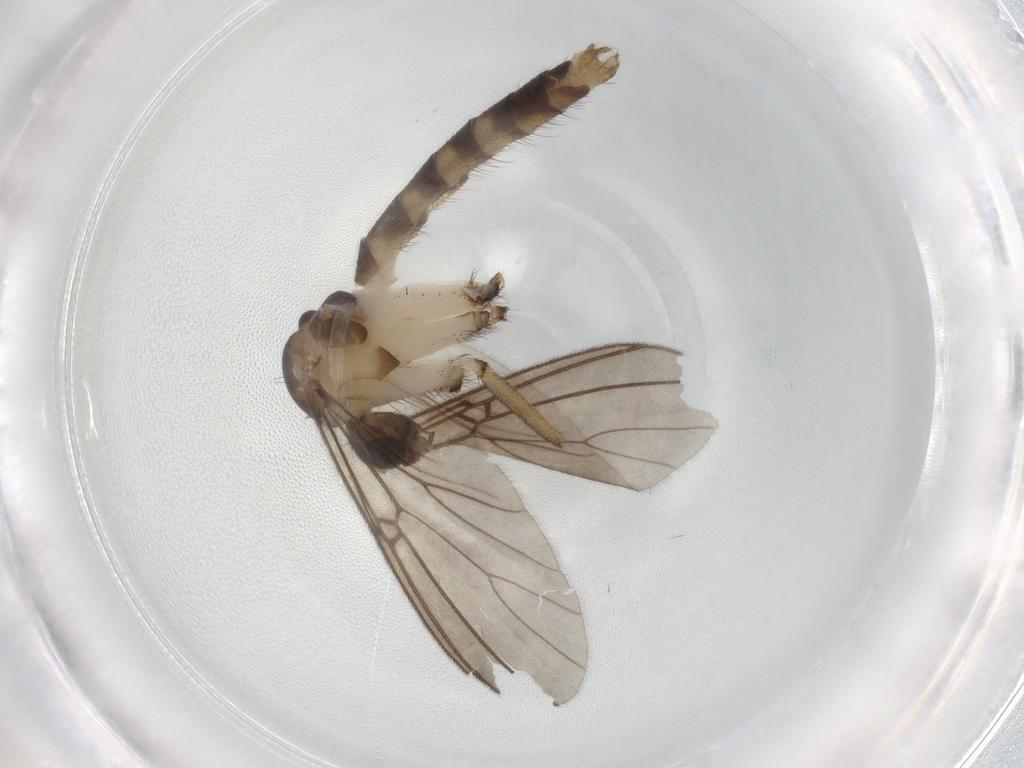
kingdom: Animalia
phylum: Arthropoda
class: Insecta
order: Diptera
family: Agromyzidae
